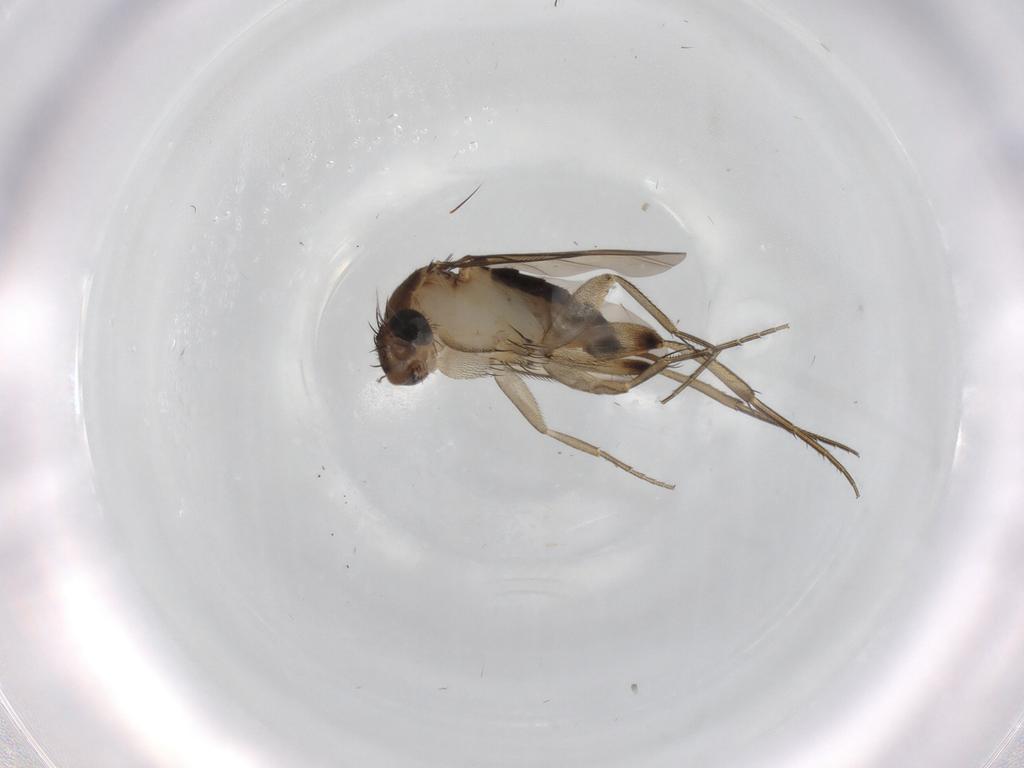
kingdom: Animalia
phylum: Arthropoda
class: Insecta
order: Diptera
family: Phoridae
